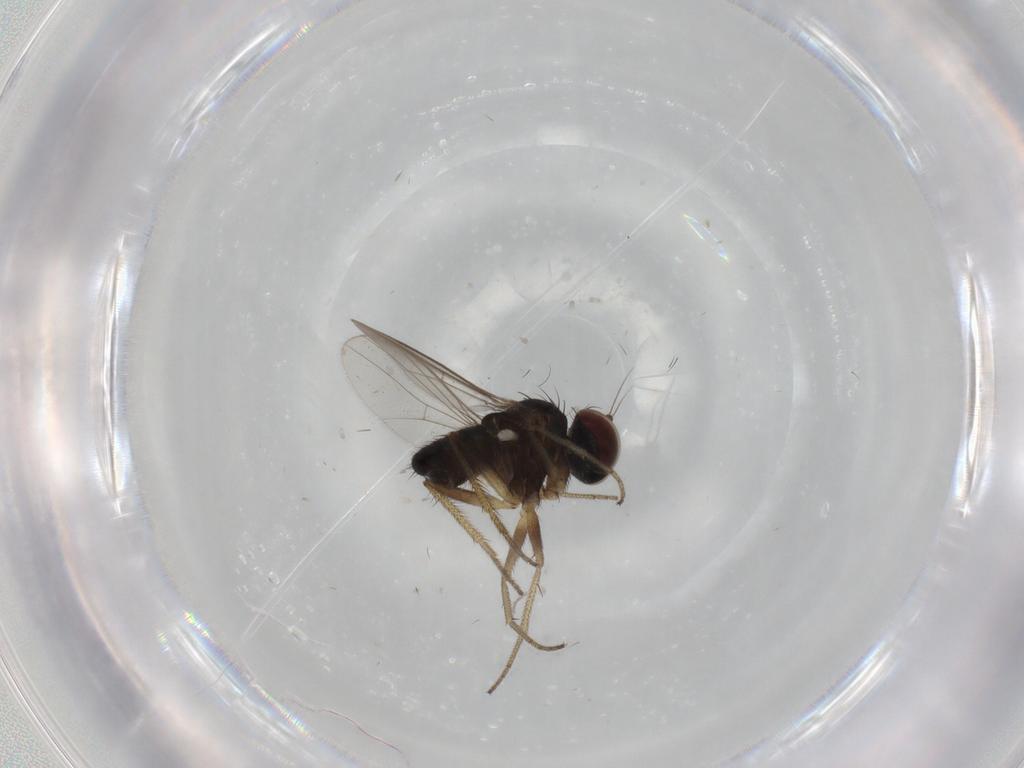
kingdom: Animalia
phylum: Arthropoda
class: Insecta
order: Diptera
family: Dolichopodidae
